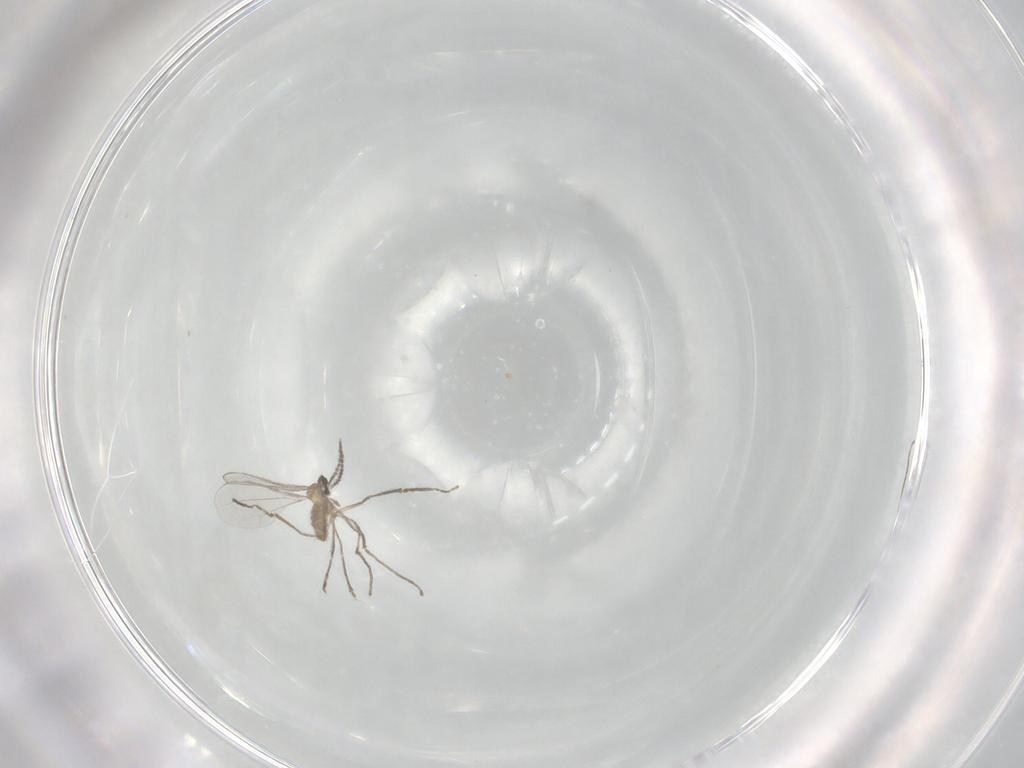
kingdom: Animalia
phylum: Arthropoda
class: Insecta
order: Diptera
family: Cecidomyiidae
